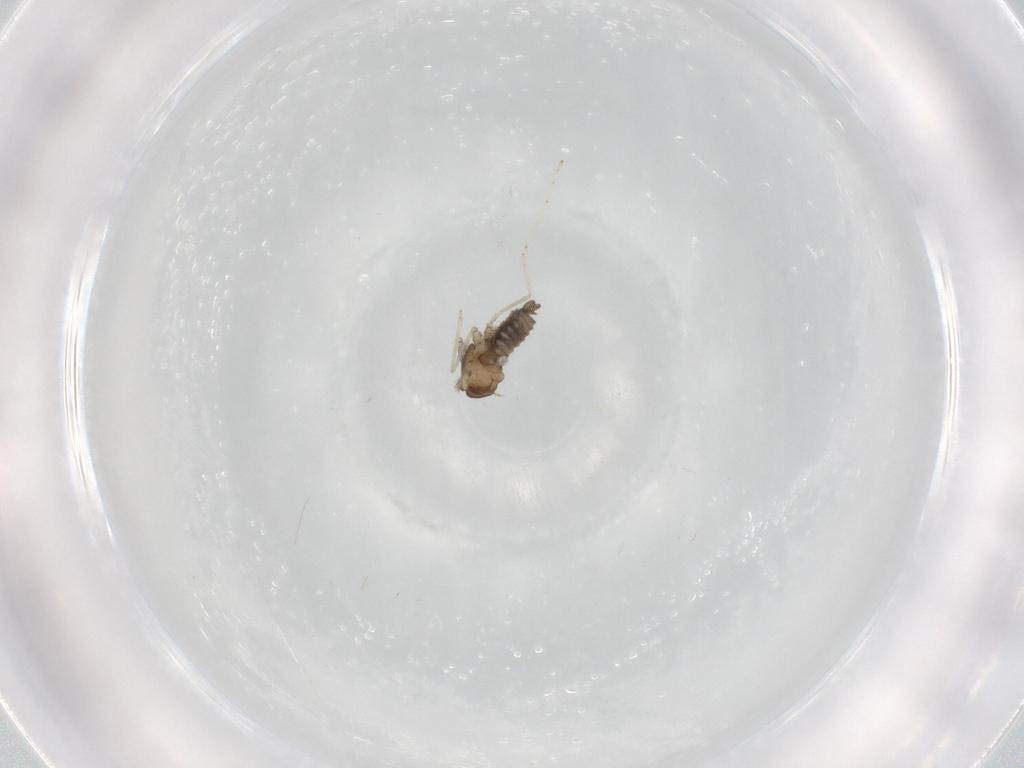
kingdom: Animalia
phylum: Arthropoda
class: Insecta
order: Diptera
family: Cecidomyiidae
